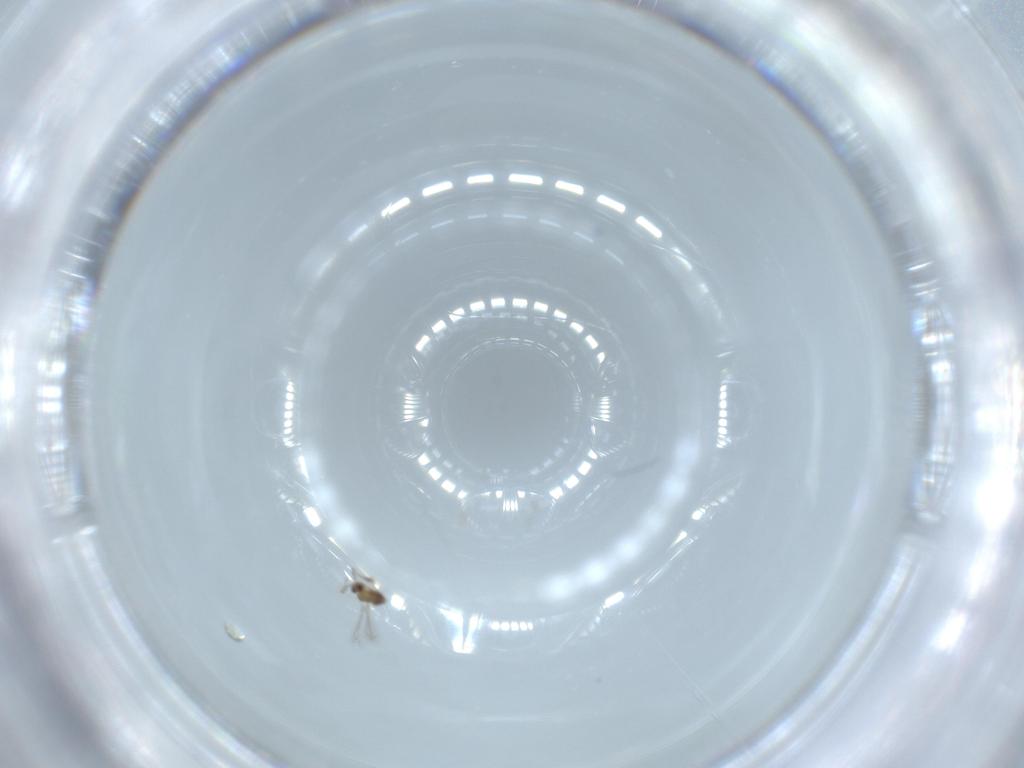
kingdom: Animalia
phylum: Arthropoda
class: Insecta
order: Hymenoptera
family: Mymaridae
